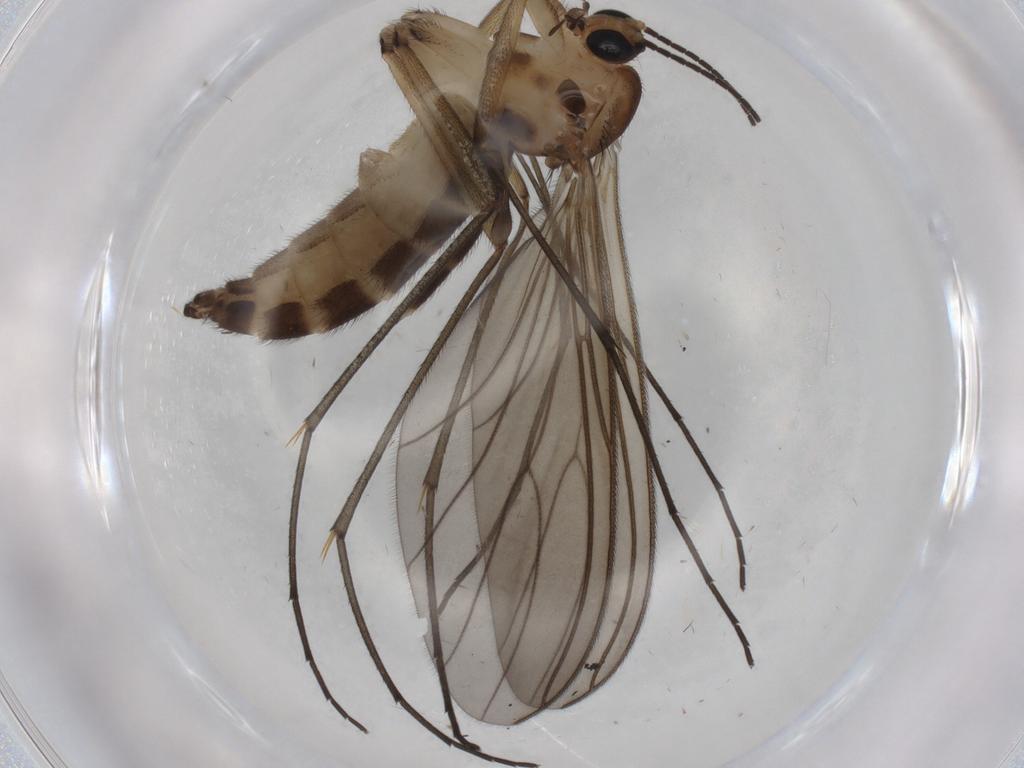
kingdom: Animalia
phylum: Arthropoda
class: Insecta
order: Diptera
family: Sciaridae
